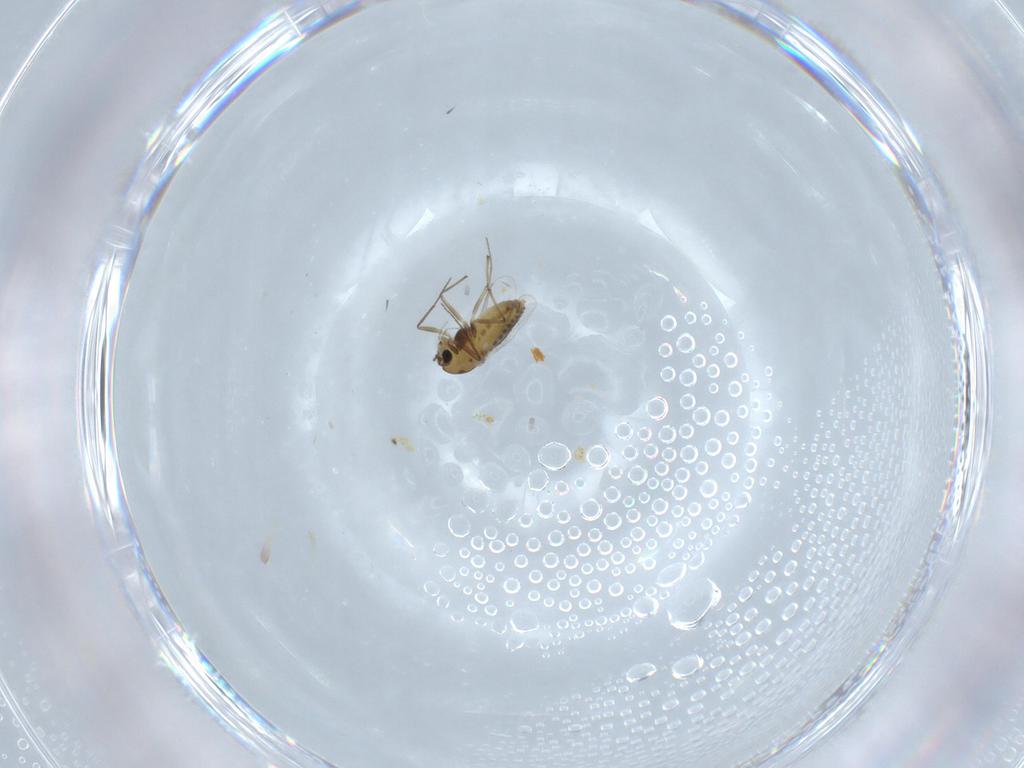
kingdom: Animalia
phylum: Arthropoda
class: Insecta
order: Diptera
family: Chironomidae
